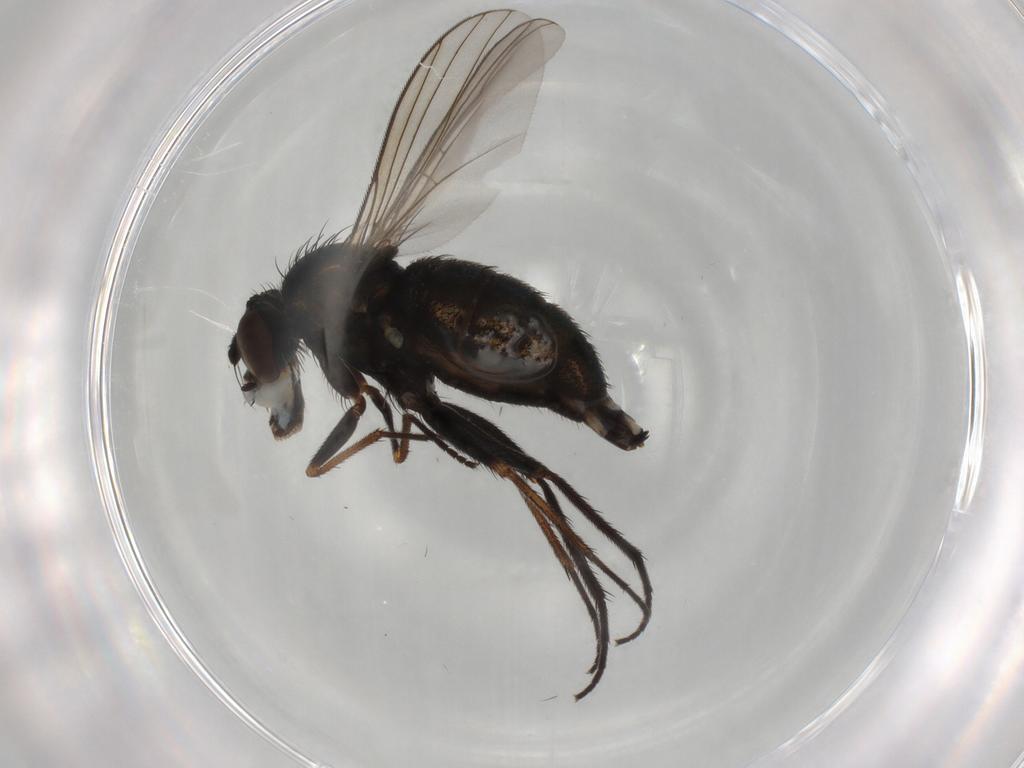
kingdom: Animalia
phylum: Arthropoda
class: Insecta
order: Diptera
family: Dolichopodidae
